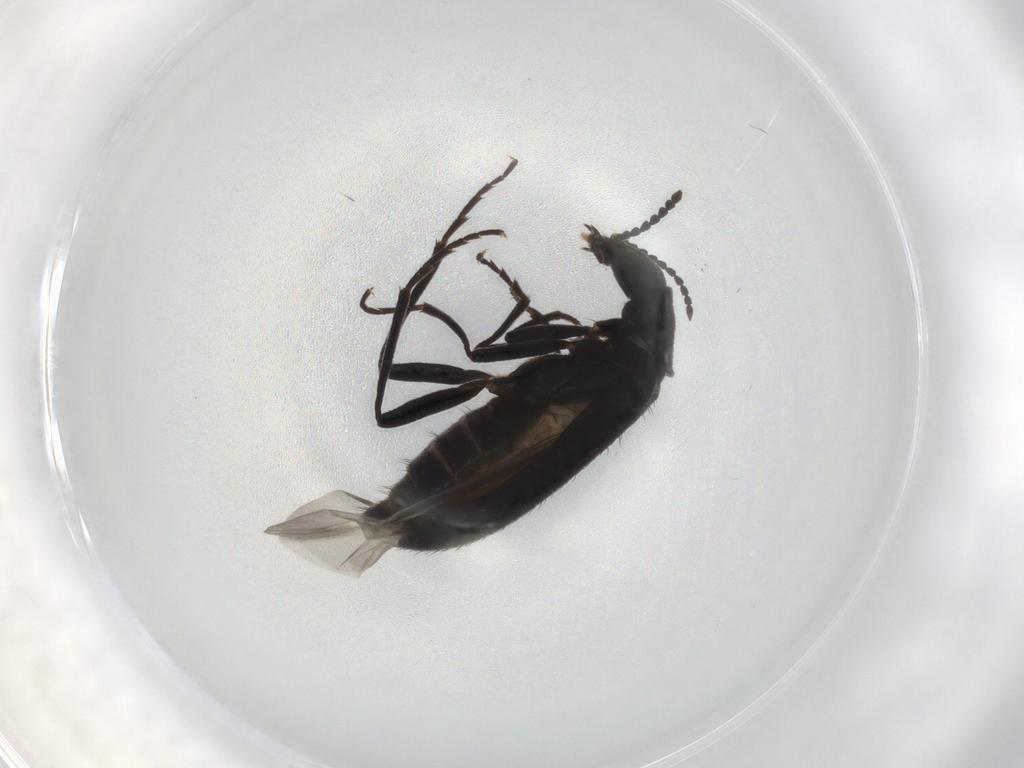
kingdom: Animalia
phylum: Arthropoda
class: Insecta
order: Coleoptera
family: Melyridae
